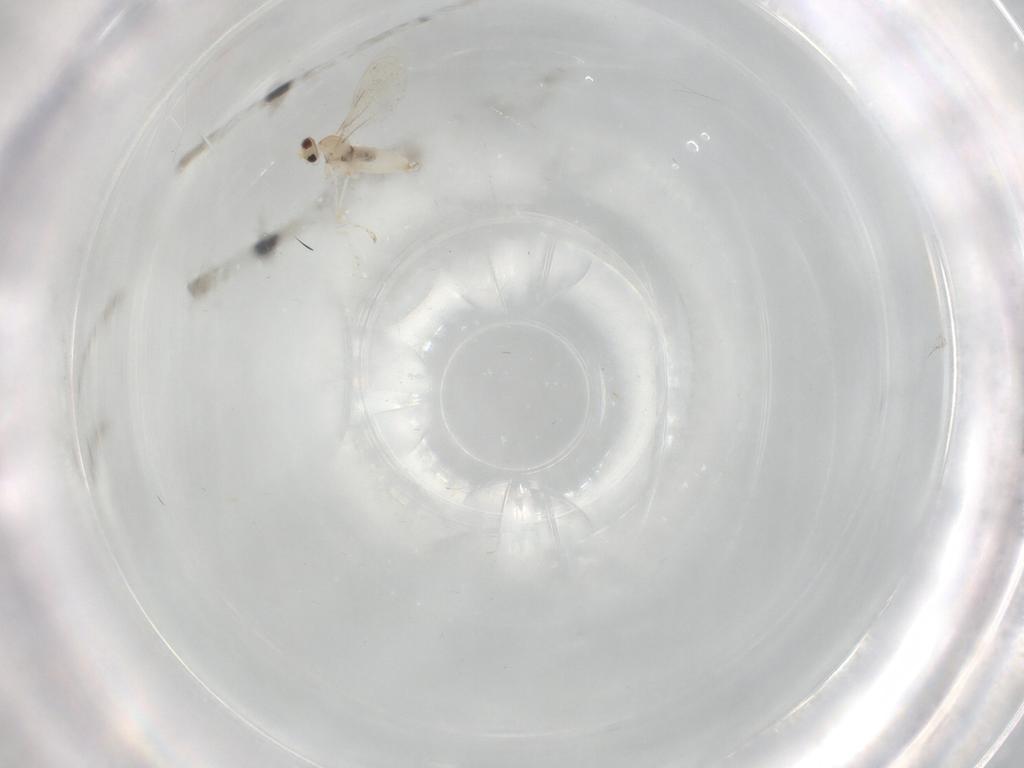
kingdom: Animalia
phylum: Arthropoda
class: Insecta
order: Diptera
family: Cecidomyiidae
